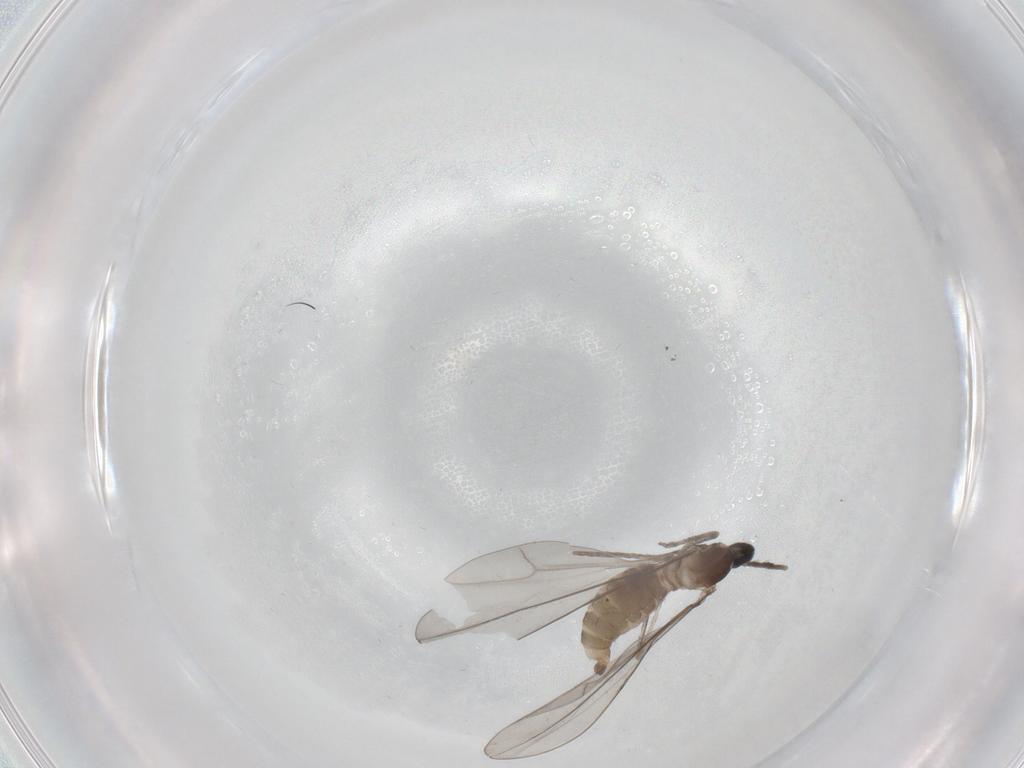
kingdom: Animalia
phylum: Arthropoda
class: Insecta
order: Diptera
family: Cecidomyiidae
